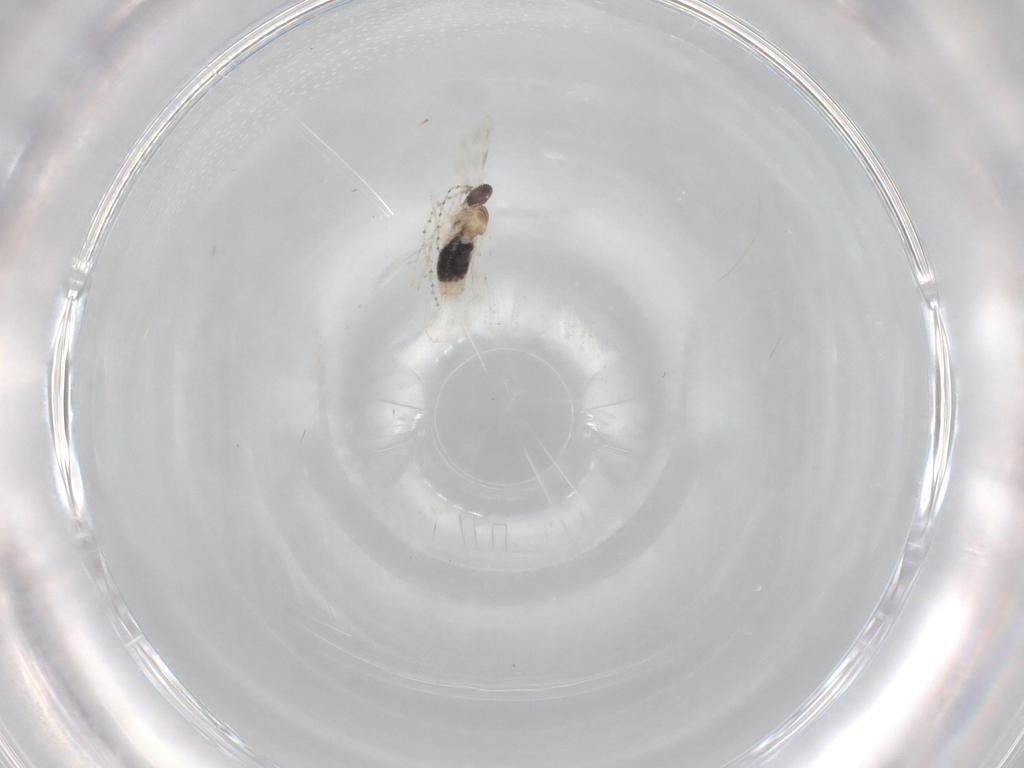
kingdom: Animalia
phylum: Arthropoda
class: Insecta
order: Diptera
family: Cecidomyiidae
